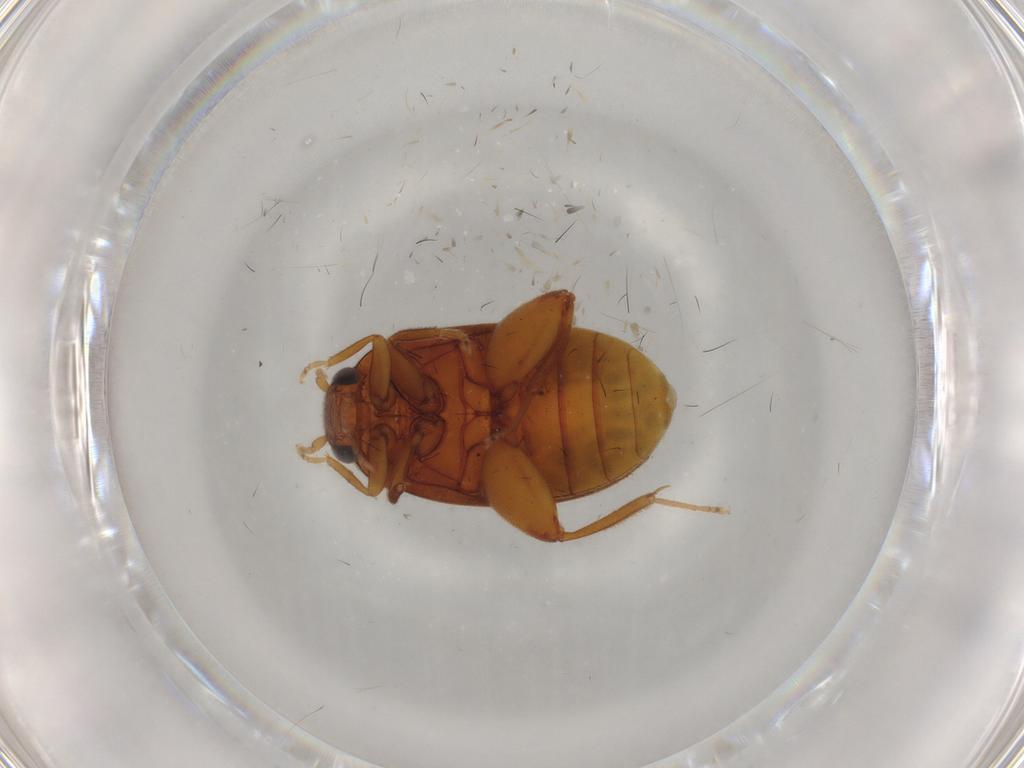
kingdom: Animalia
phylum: Arthropoda
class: Insecta
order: Coleoptera
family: Scirtidae
